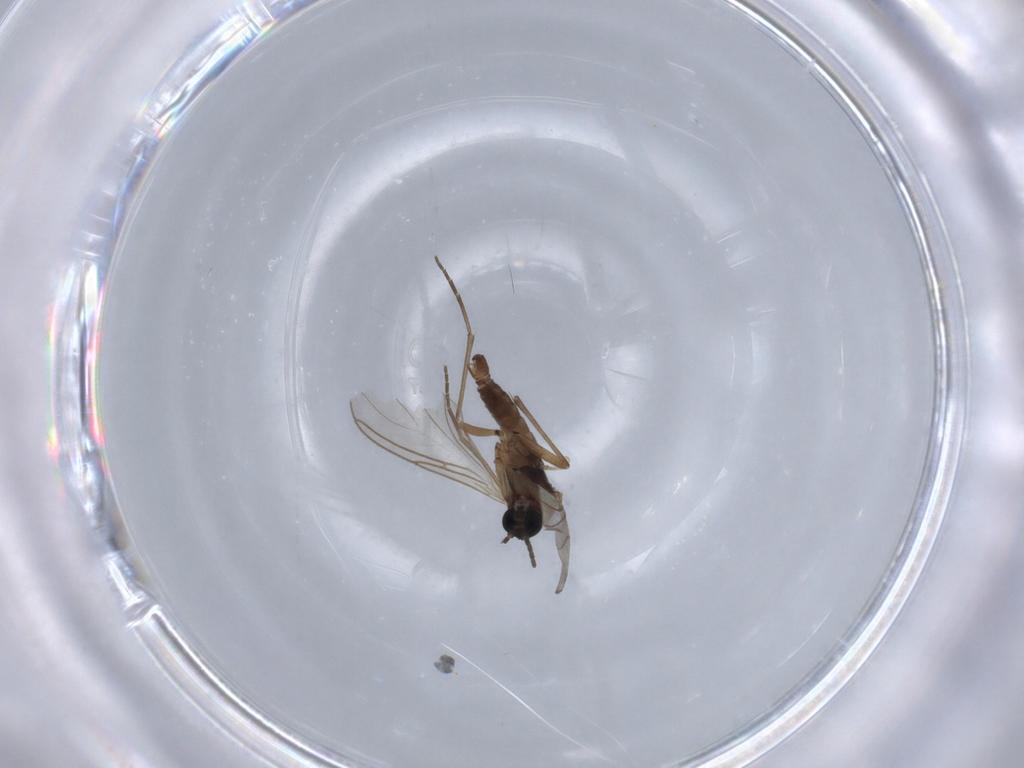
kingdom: Animalia
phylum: Arthropoda
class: Insecta
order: Diptera
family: Sciaridae
